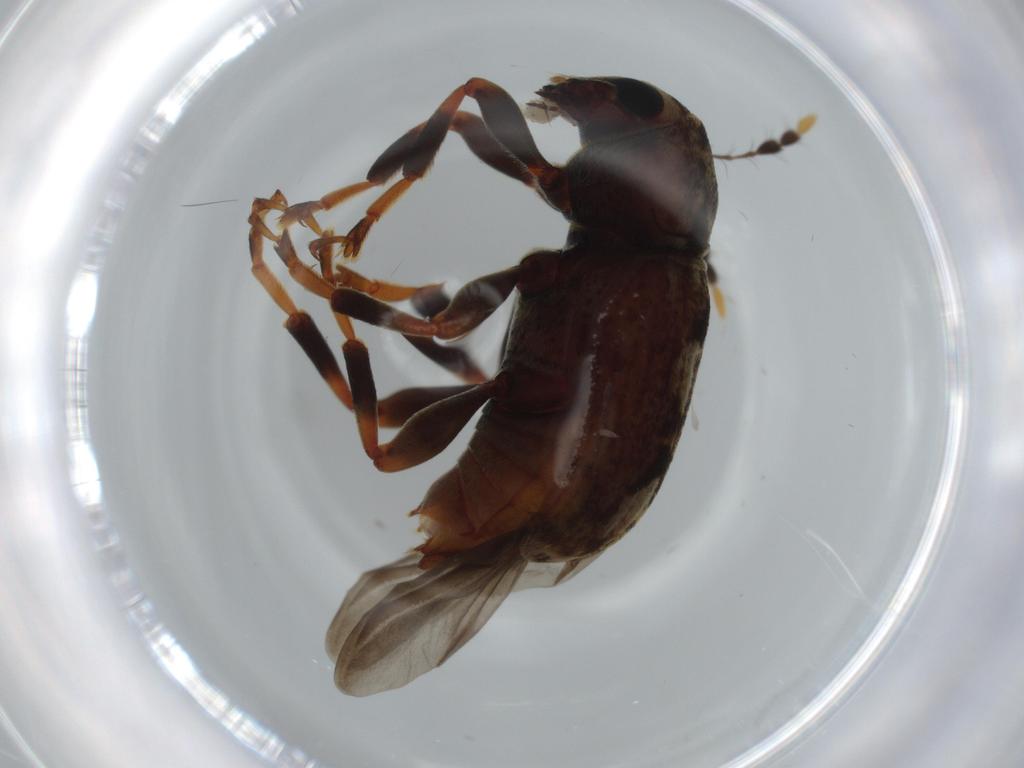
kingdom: Animalia
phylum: Arthropoda
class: Insecta
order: Coleoptera
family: Anthribidae
